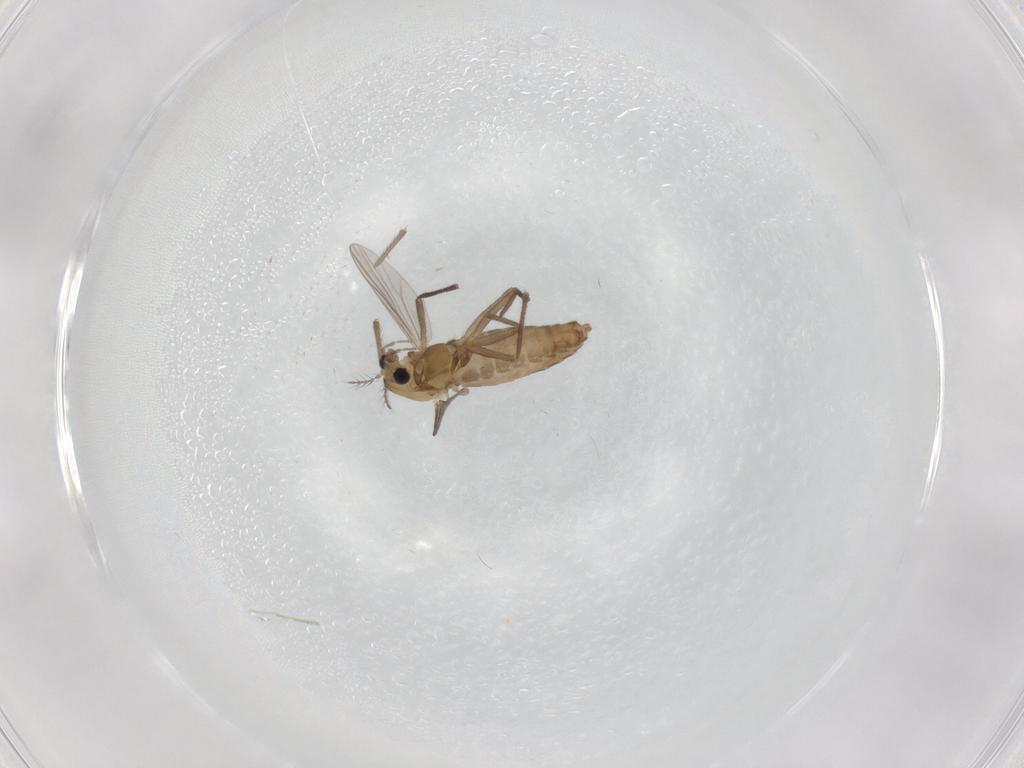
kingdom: Animalia
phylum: Arthropoda
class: Insecta
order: Diptera
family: Chironomidae
